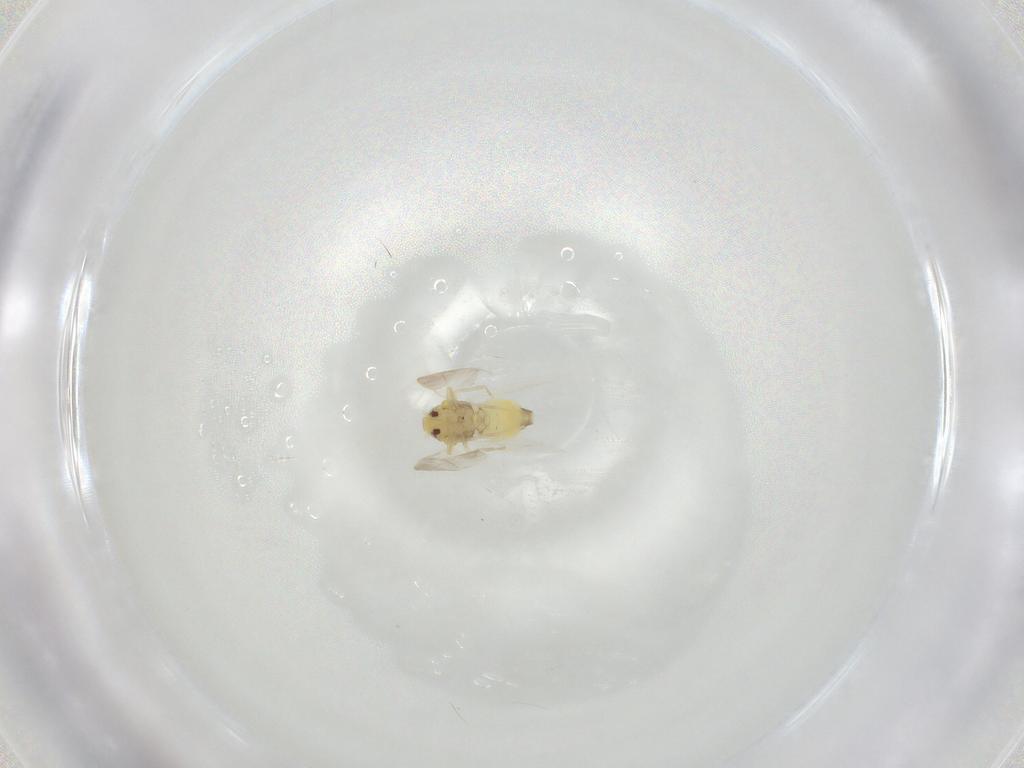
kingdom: Animalia
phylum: Arthropoda
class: Insecta
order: Hemiptera
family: Aleyrodidae
